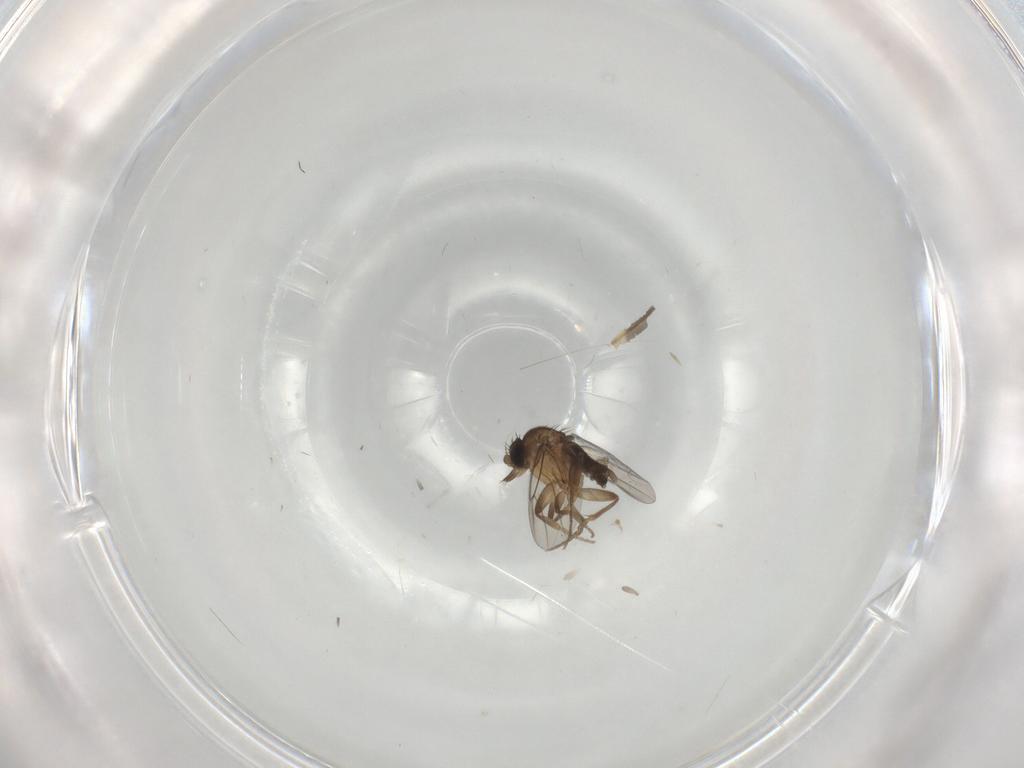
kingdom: Animalia
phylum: Arthropoda
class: Insecta
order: Diptera
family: Phoridae
